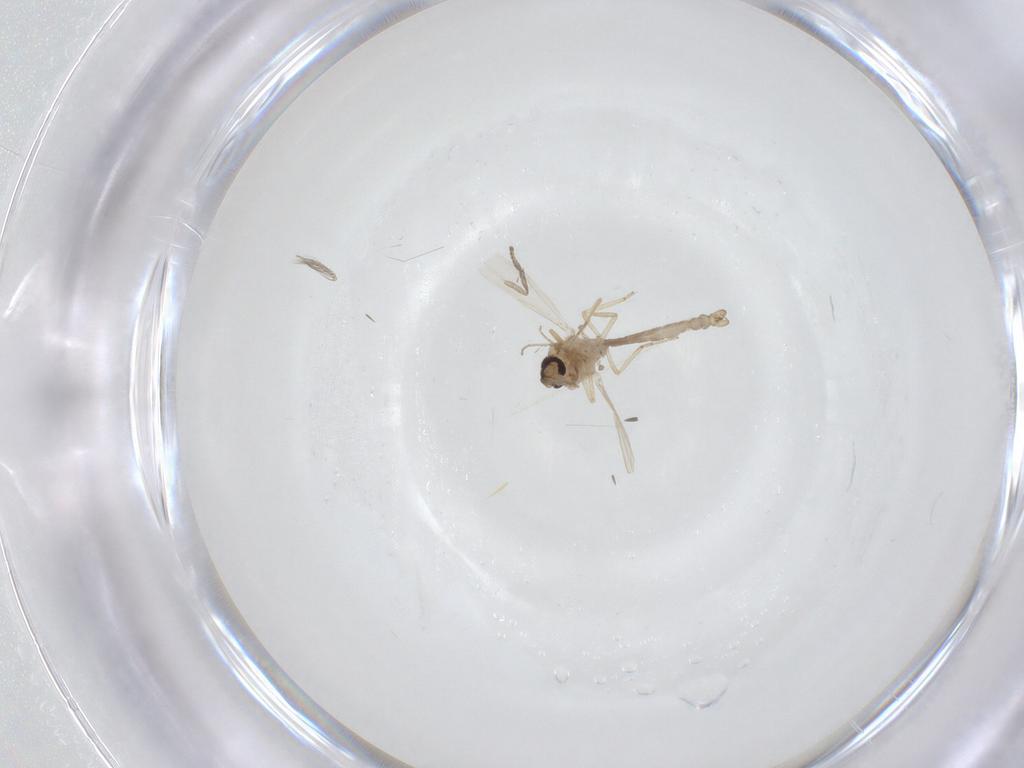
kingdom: Animalia
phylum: Arthropoda
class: Insecta
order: Diptera
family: Ceratopogonidae
